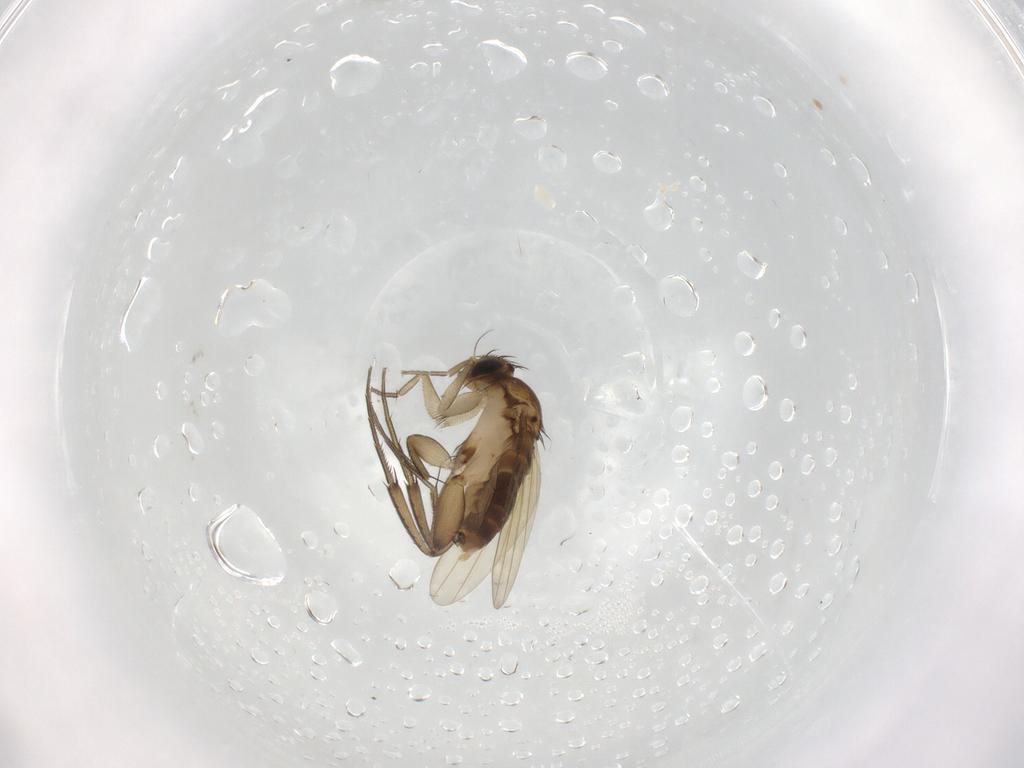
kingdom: Animalia
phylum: Arthropoda
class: Insecta
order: Diptera
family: Phoridae
